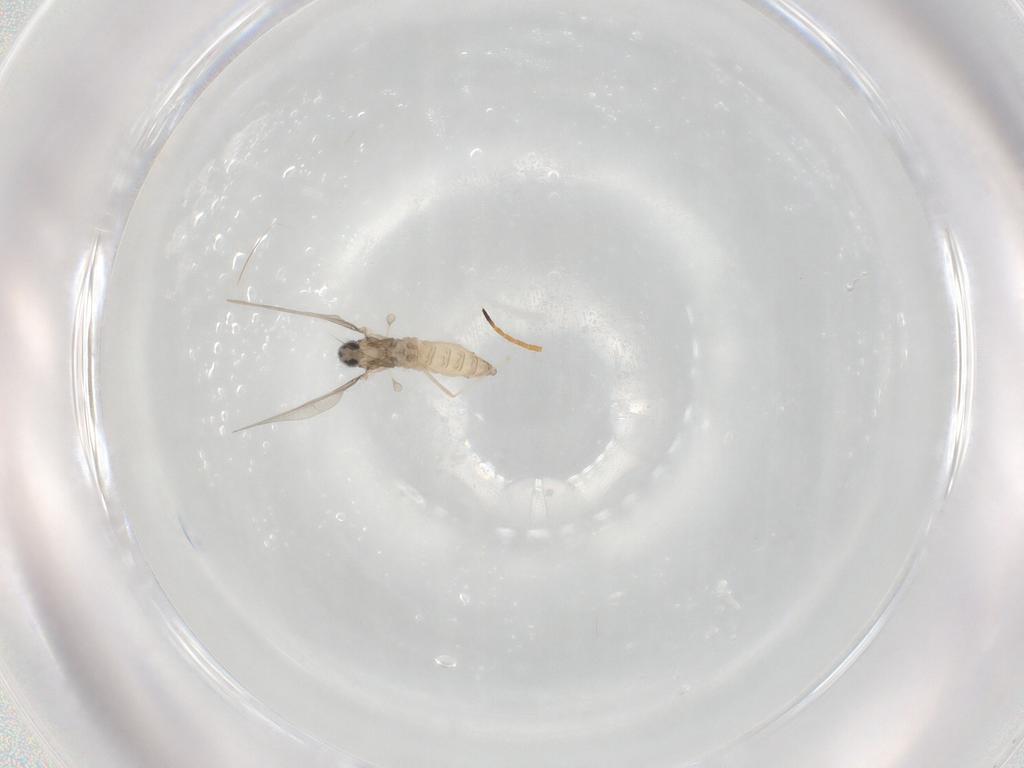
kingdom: Animalia
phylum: Arthropoda
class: Insecta
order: Diptera
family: Cecidomyiidae
